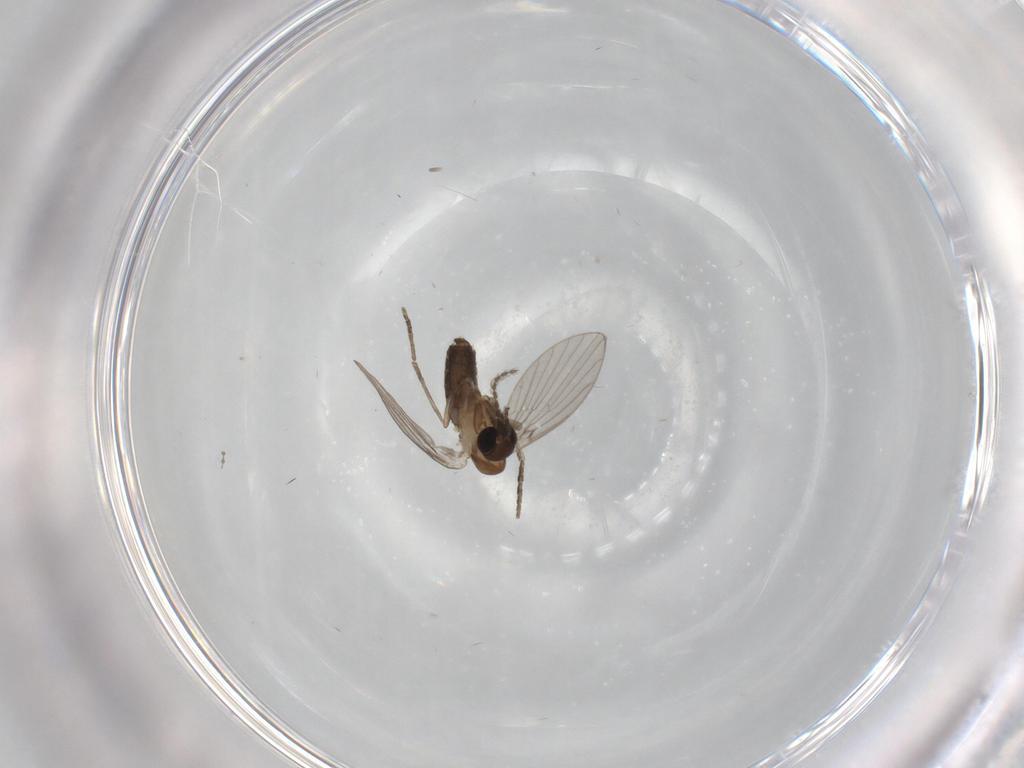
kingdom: Animalia
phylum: Arthropoda
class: Insecta
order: Diptera
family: Psychodidae
